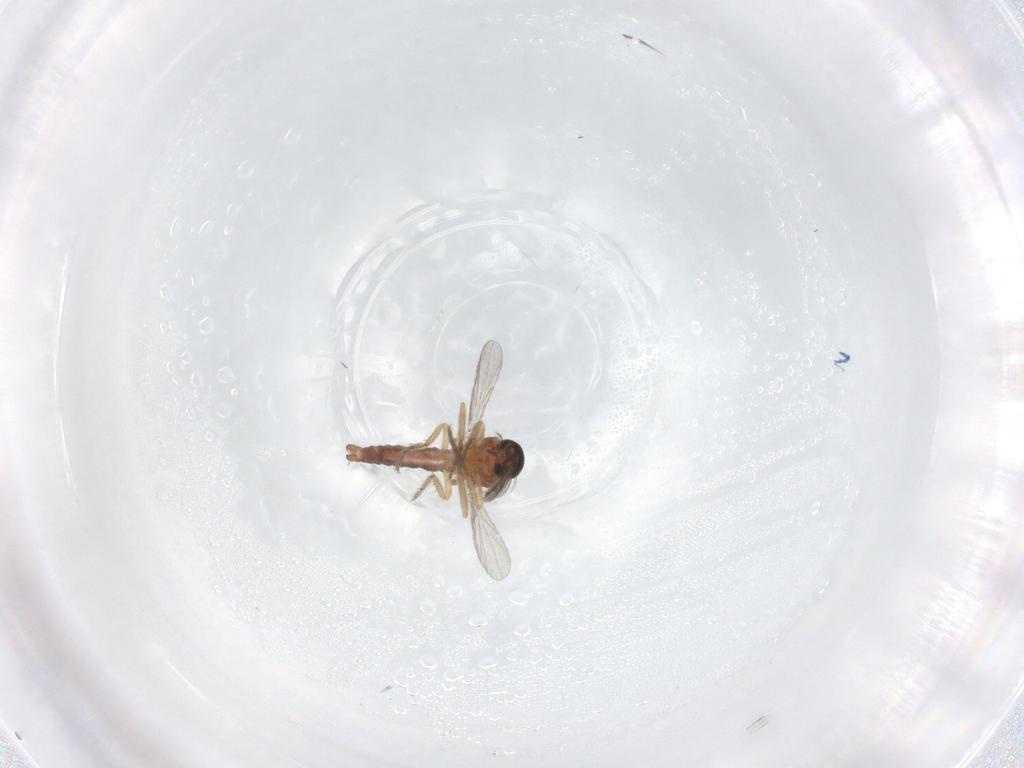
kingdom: Animalia
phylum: Arthropoda
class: Insecta
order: Diptera
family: Ceratopogonidae
